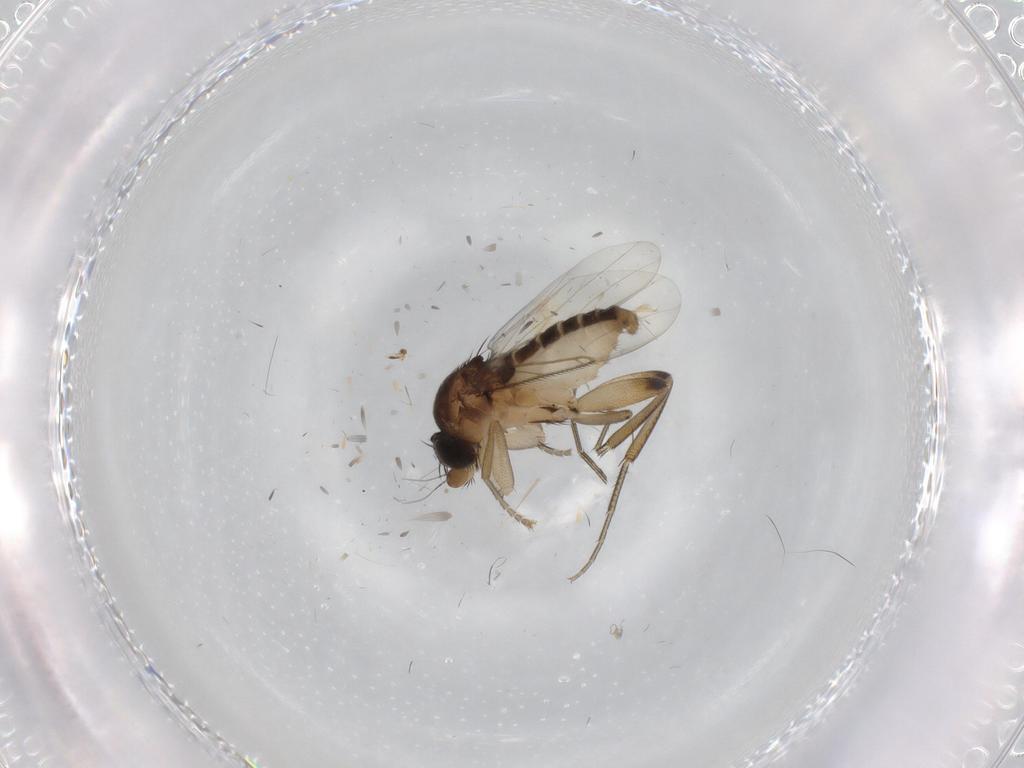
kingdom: Animalia
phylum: Arthropoda
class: Insecta
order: Diptera
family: Phoridae
